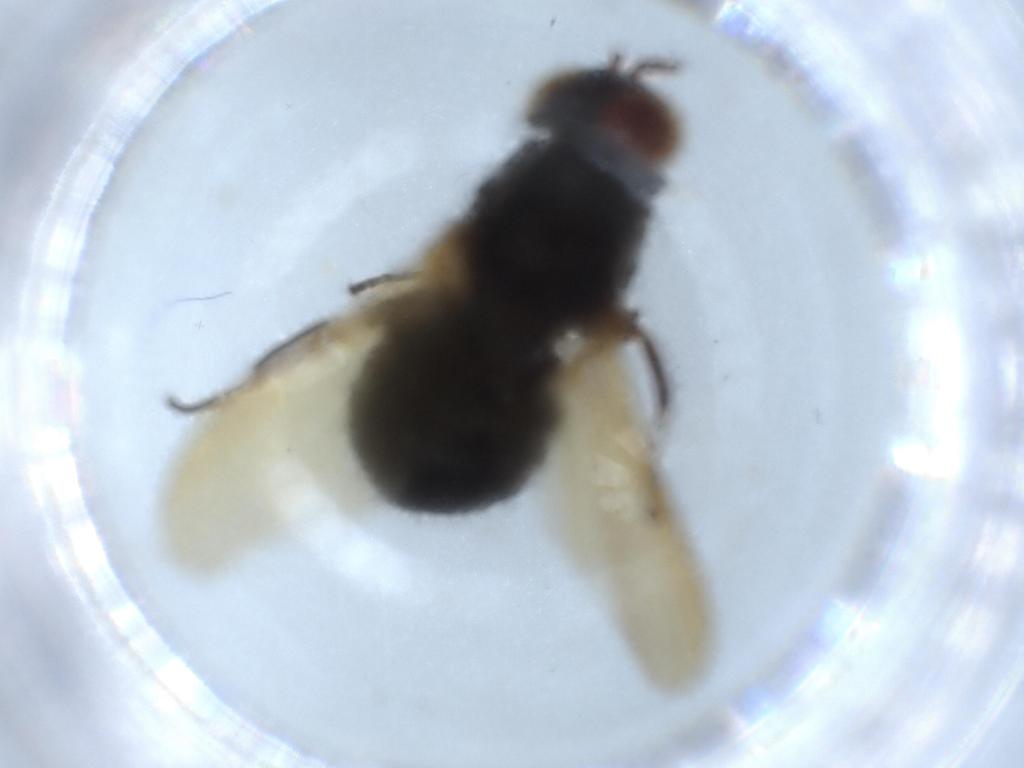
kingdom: Animalia
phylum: Arthropoda
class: Insecta
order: Diptera
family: Lauxaniidae
